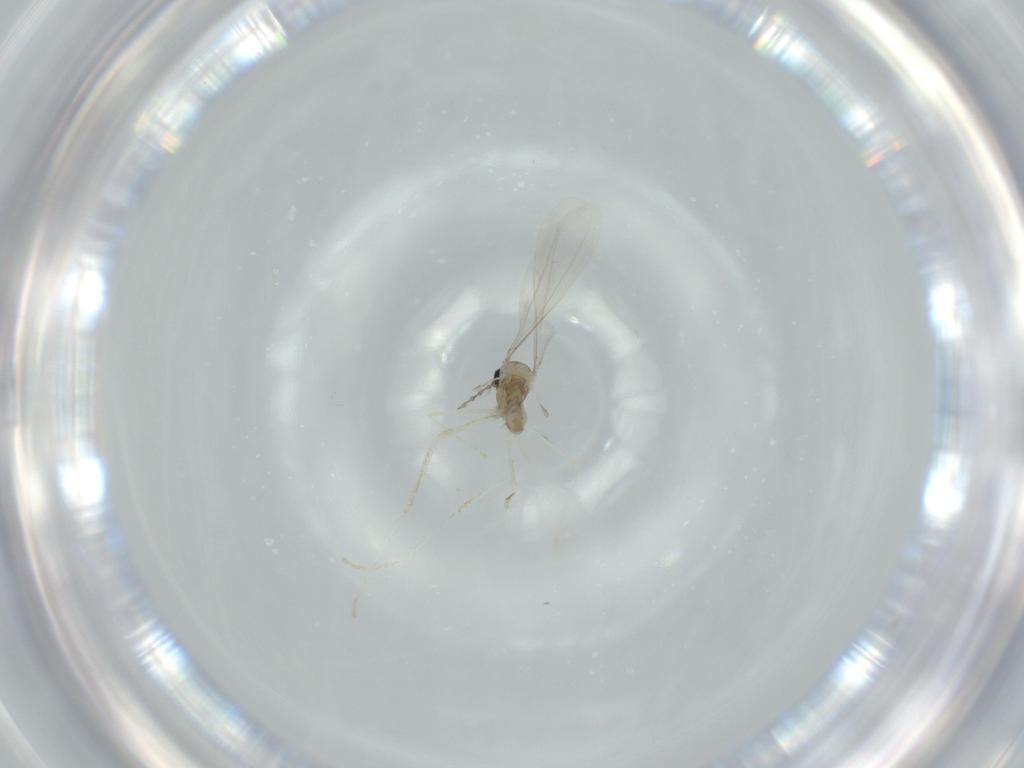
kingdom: Animalia
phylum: Arthropoda
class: Insecta
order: Diptera
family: Cecidomyiidae
